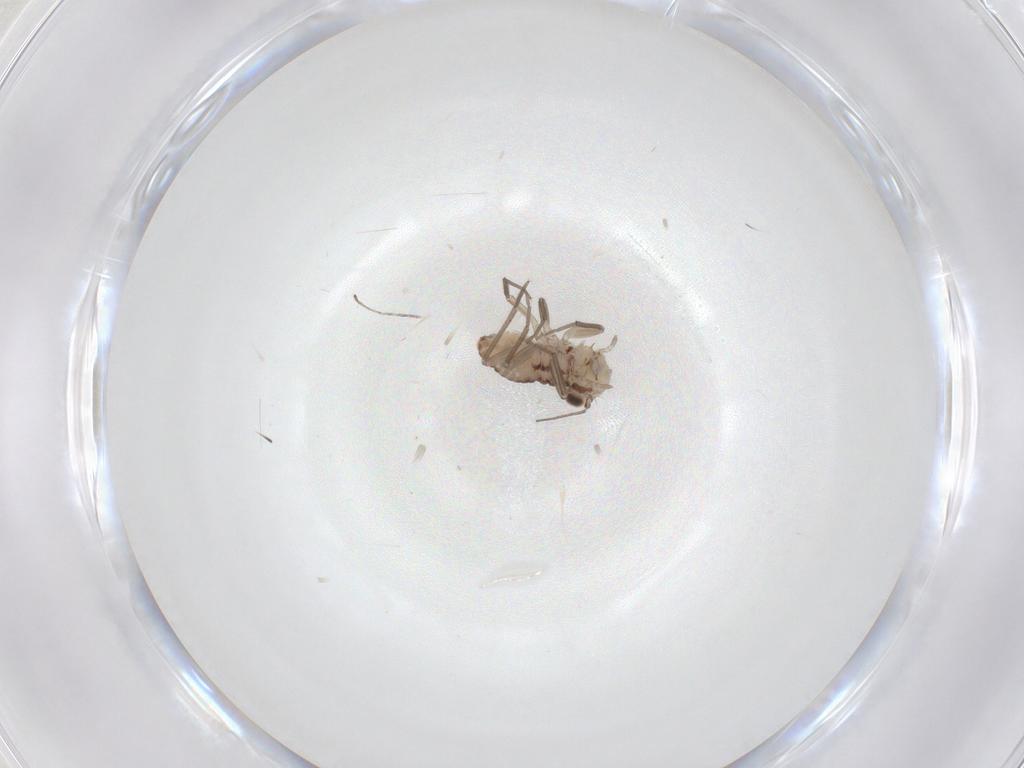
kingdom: Animalia
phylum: Arthropoda
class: Insecta
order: Psocodea
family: Mesopsocidae
